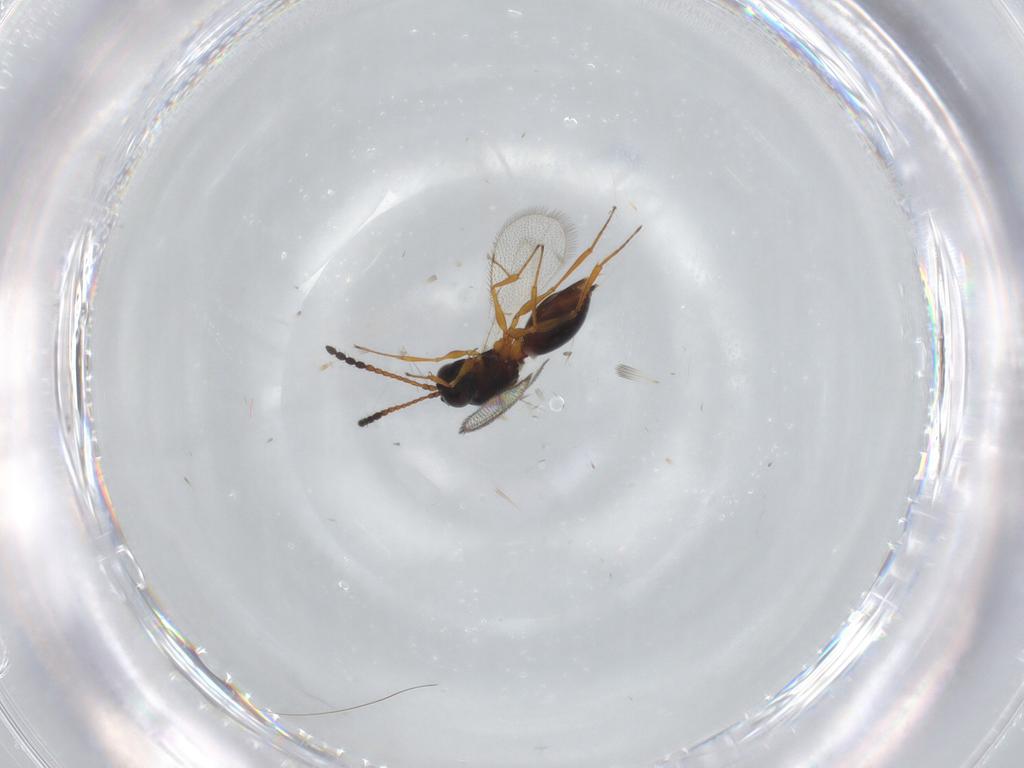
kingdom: Animalia
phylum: Arthropoda
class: Insecta
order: Hymenoptera
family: Figitidae
